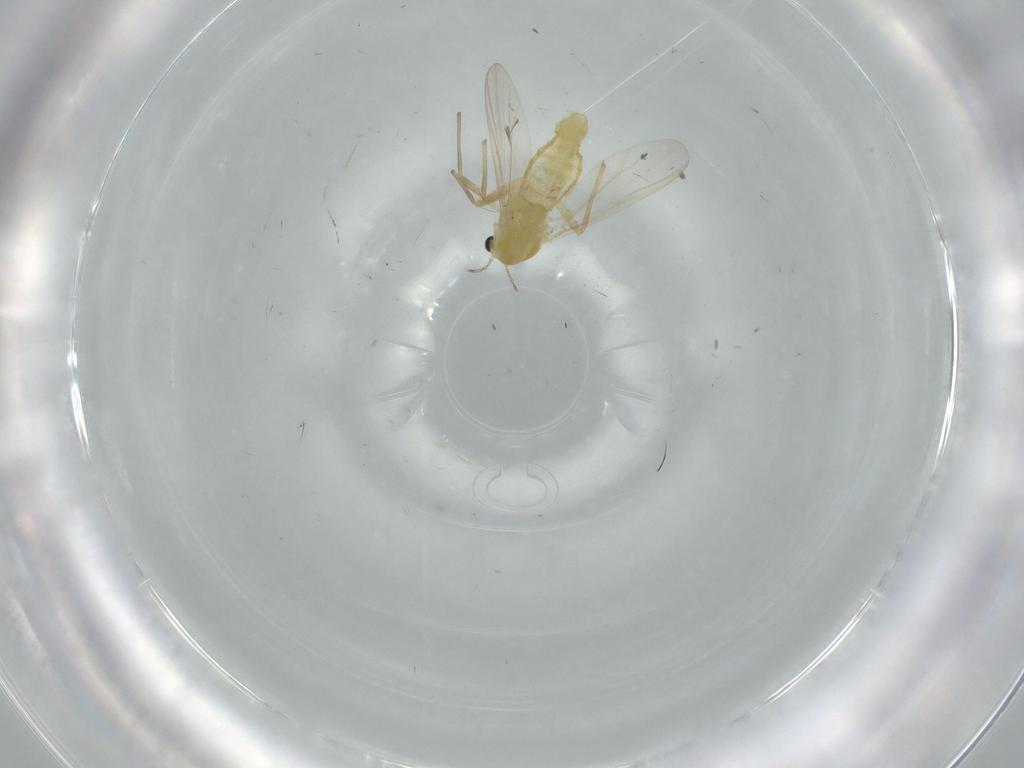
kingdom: Animalia
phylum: Arthropoda
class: Insecta
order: Diptera
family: Chironomidae
